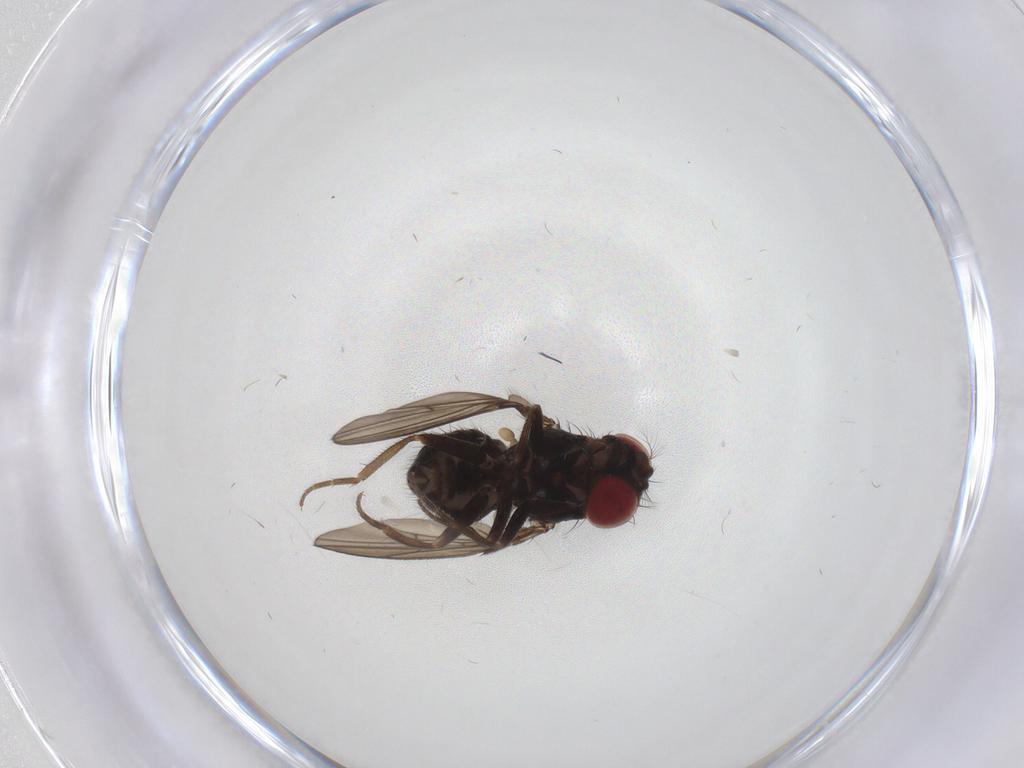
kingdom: Animalia
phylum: Arthropoda
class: Insecta
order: Diptera
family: Drosophilidae
